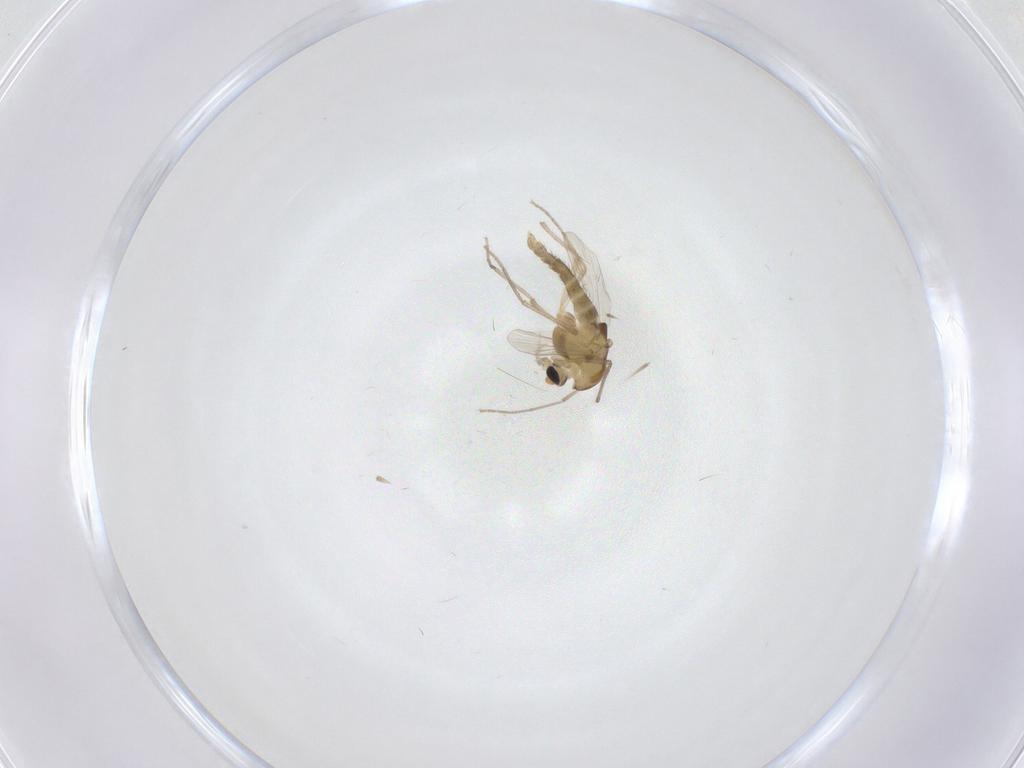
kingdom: Animalia
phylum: Arthropoda
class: Insecta
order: Diptera
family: Chironomidae
